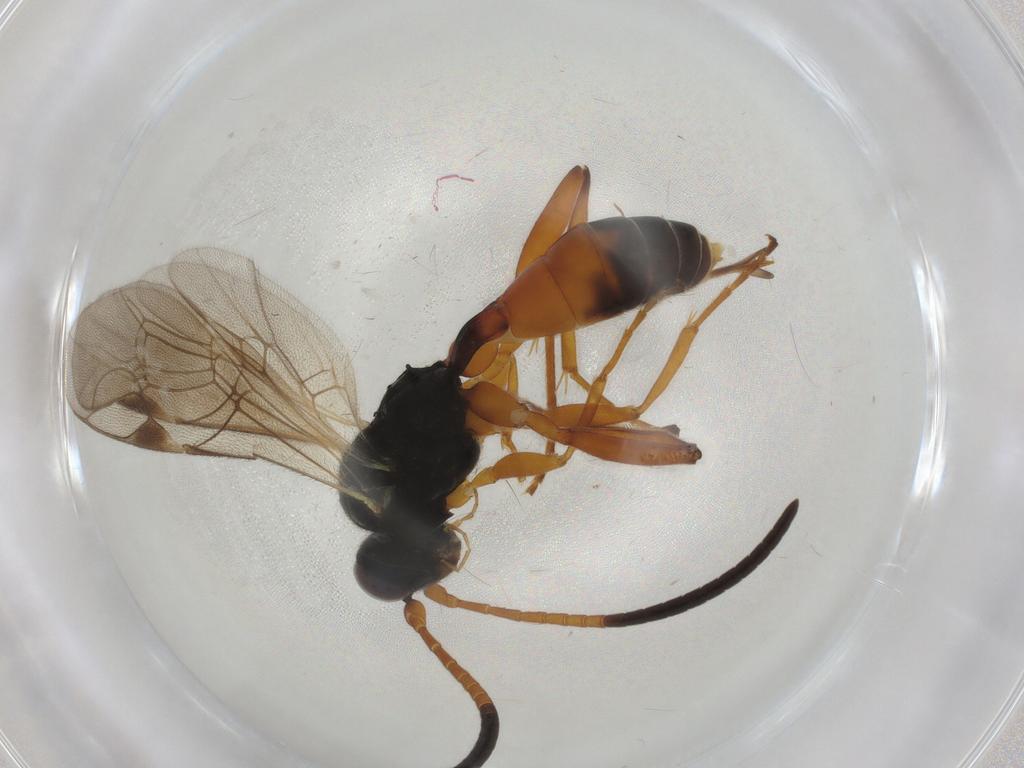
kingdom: Animalia
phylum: Arthropoda
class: Insecta
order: Hymenoptera
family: Ichneumonidae
